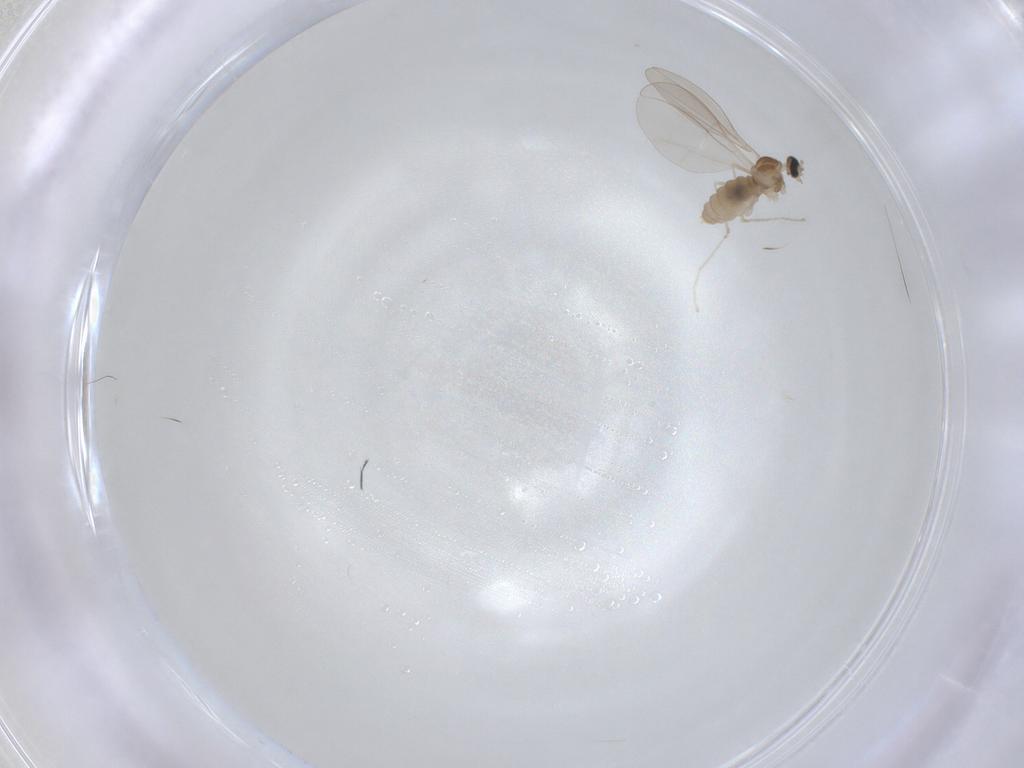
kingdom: Animalia
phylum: Arthropoda
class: Insecta
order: Diptera
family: Cecidomyiidae
